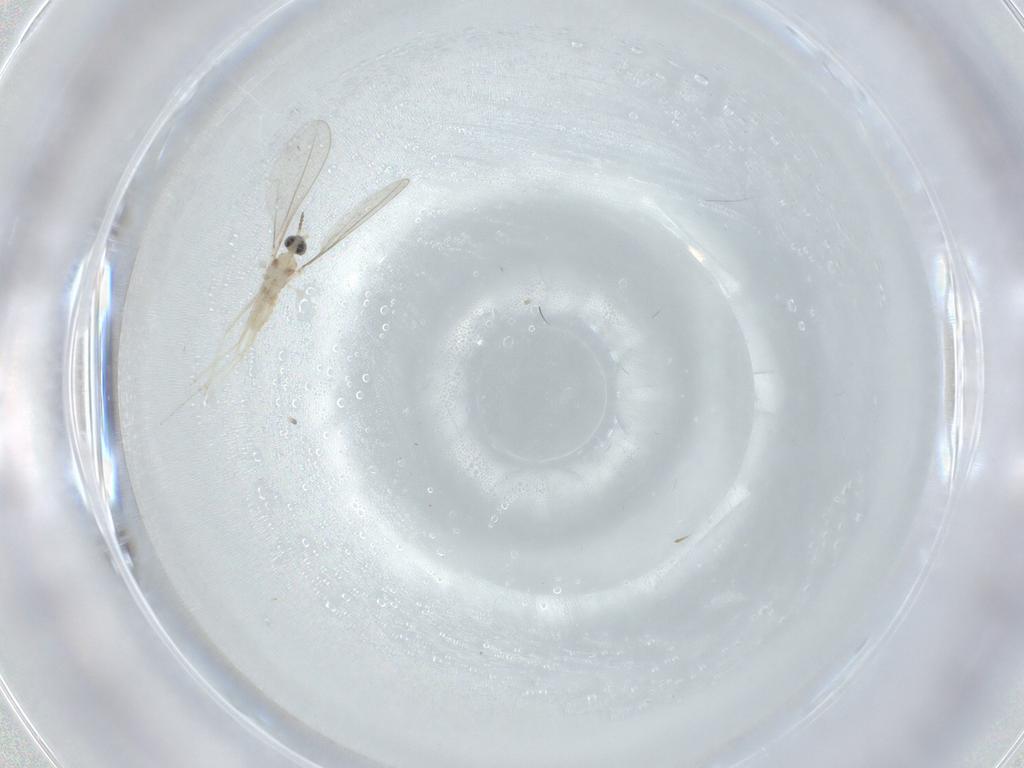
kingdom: Animalia
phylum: Arthropoda
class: Insecta
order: Diptera
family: Cecidomyiidae
